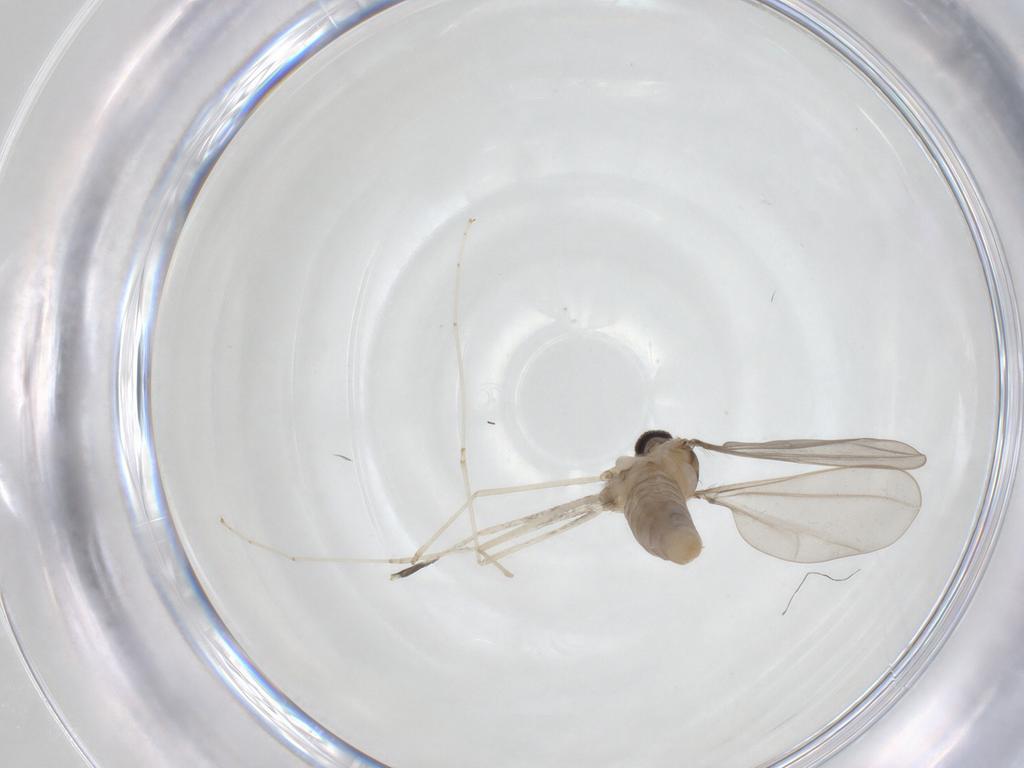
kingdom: Animalia
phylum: Arthropoda
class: Insecta
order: Diptera
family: Cecidomyiidae
